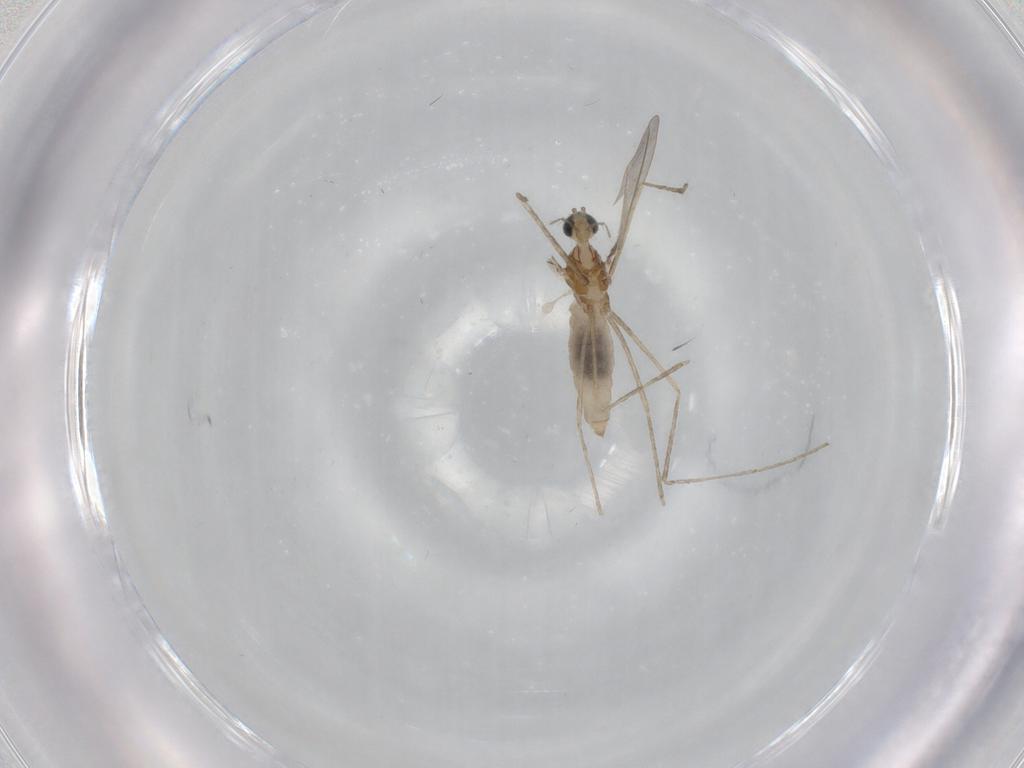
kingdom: Animalia
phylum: Arthropoda
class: Insecta
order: Diptera
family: Cecidomyiidae
